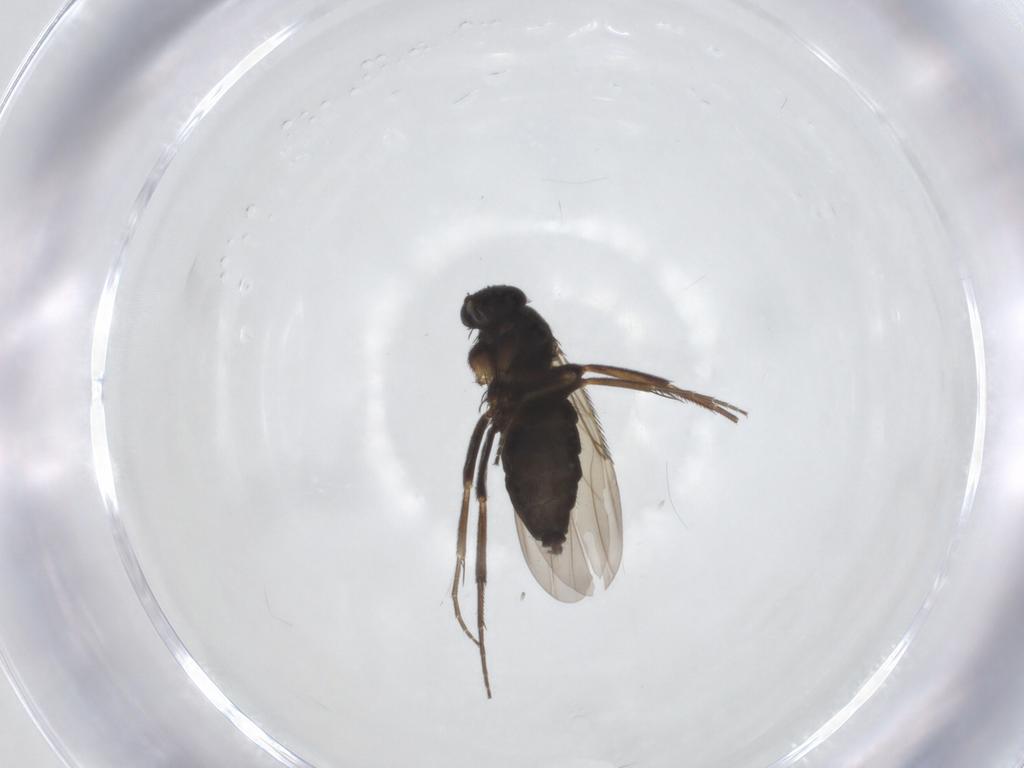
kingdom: Animalia
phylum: Arthropoda
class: Insecta
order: Diptera
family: Phoridae
